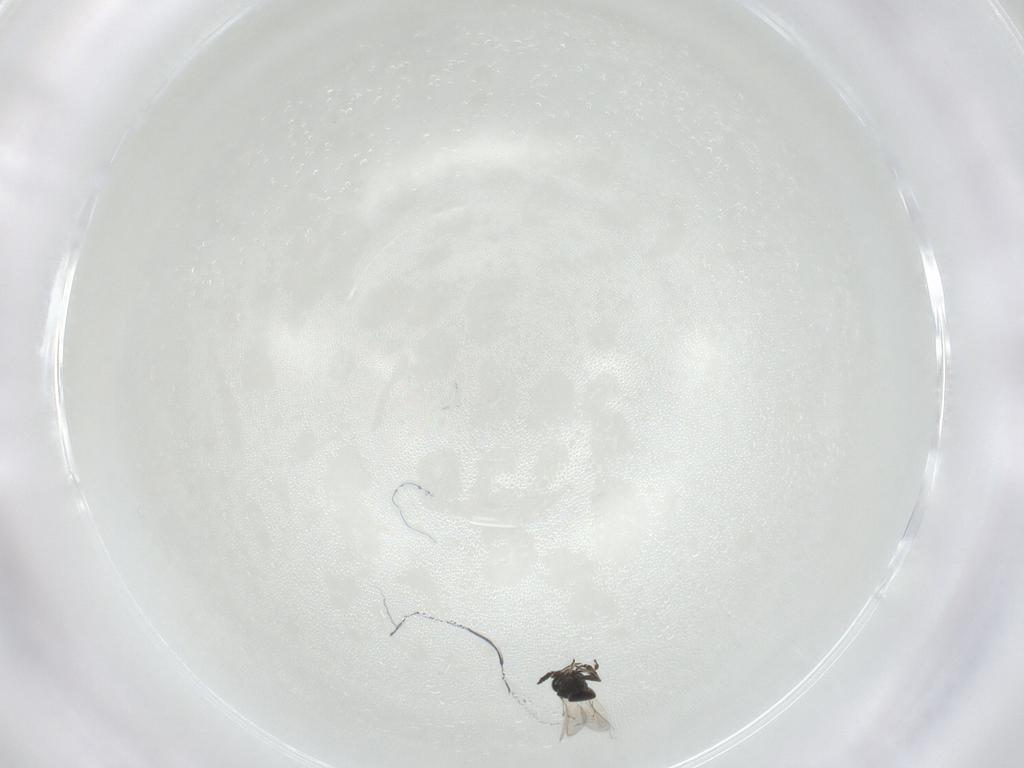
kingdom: Animalia
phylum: Arthropoda
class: Insecta
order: Hymenoptera
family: Scelionidae
